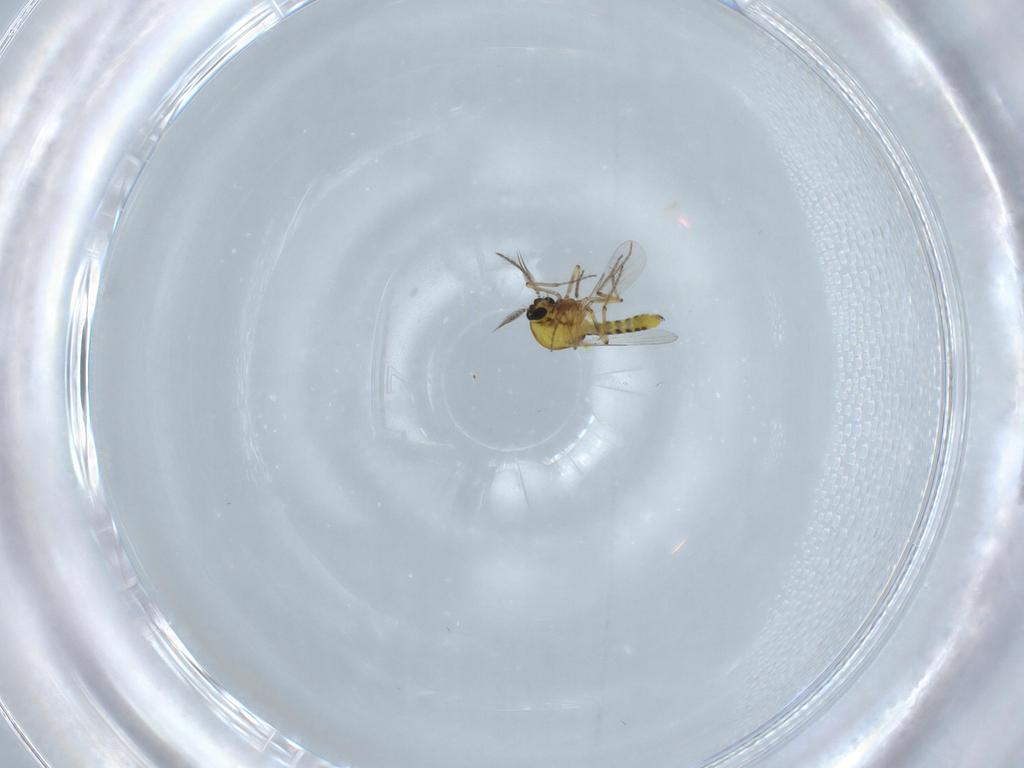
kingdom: Animalia
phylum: Arthropoda
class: Insecta
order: Diptera
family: Ceratopogonidae
